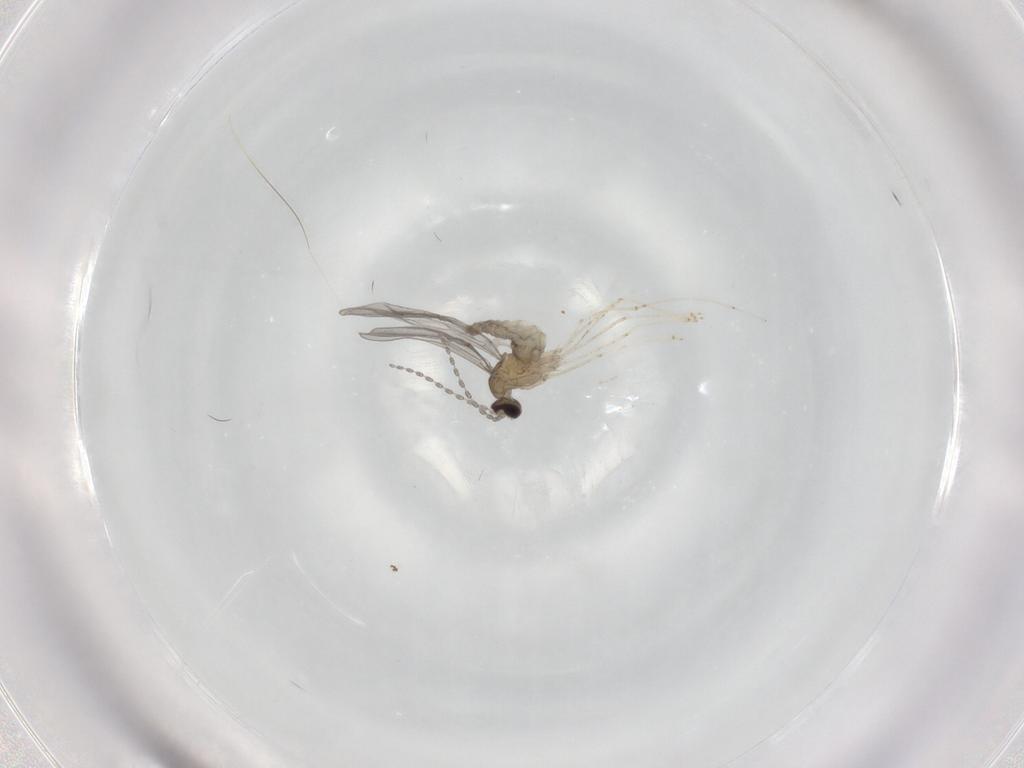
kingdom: Animalia
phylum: Arthropoda
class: Insecta
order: Diptera
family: Cecidomyiidae
